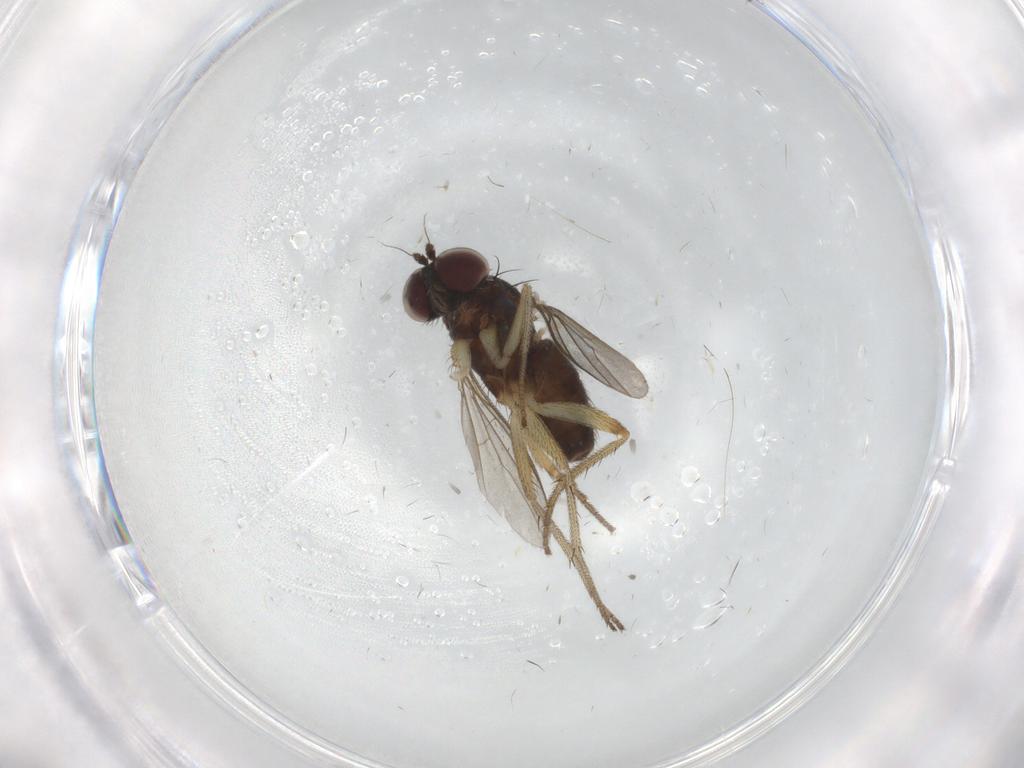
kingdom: Animalia
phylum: Arthropoda
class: Insecta
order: Diptera
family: Dolichopodidae
